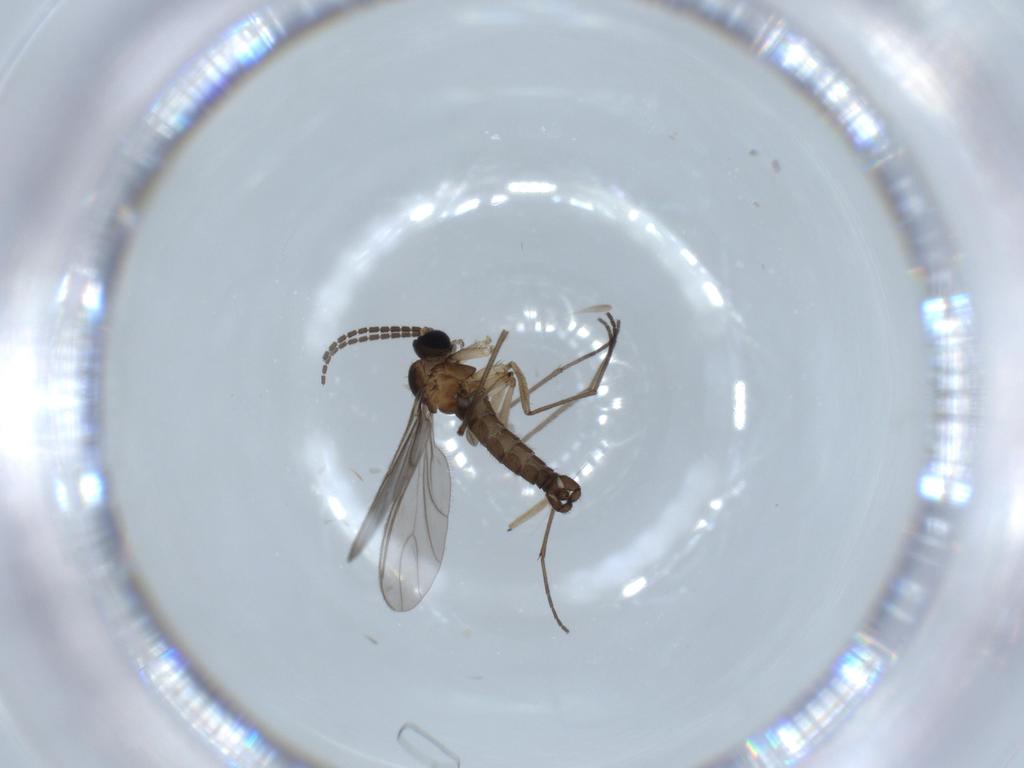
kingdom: Animalia
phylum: Arthropoda
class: Insecta
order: Diptera
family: Sciaridae
